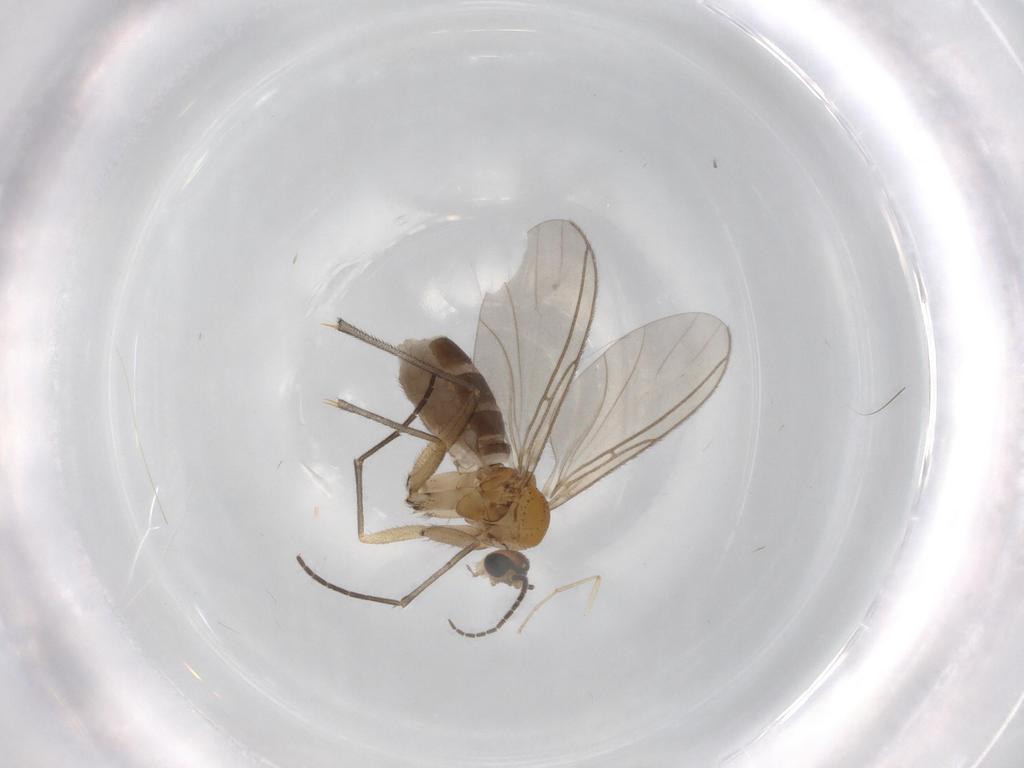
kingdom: Animalia
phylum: Arthropoda
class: Insecta
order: Diptera
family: Sciaridae
